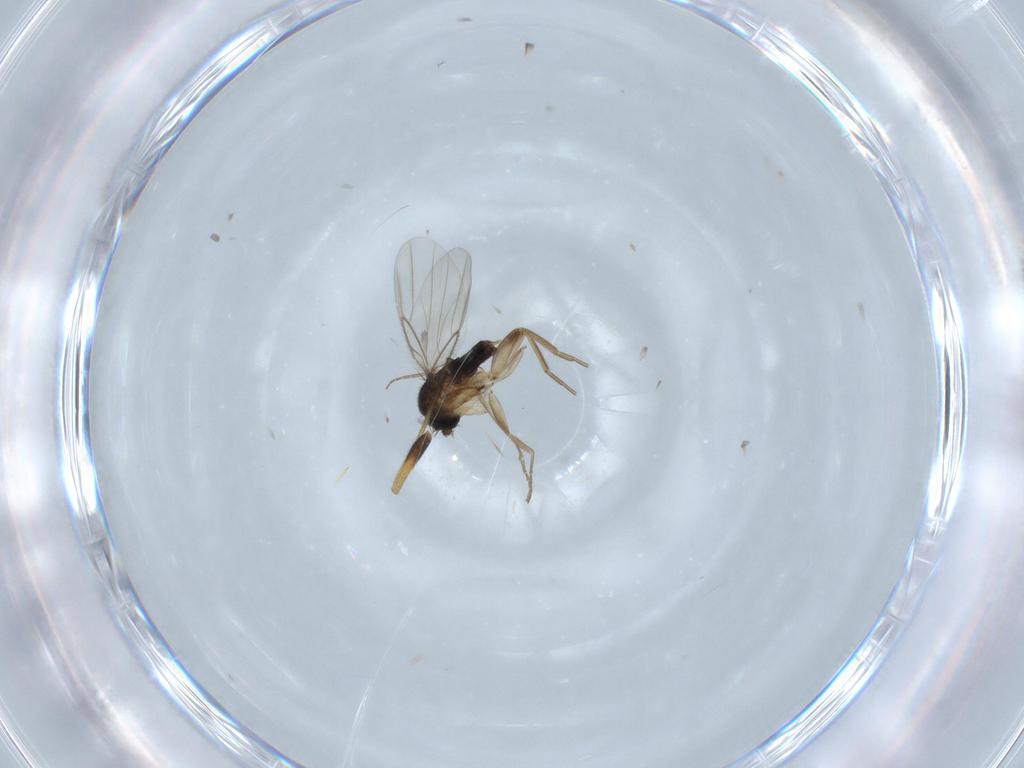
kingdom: Animalia
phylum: Arthropoda
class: Insecta
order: Diptera
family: Phoridae
